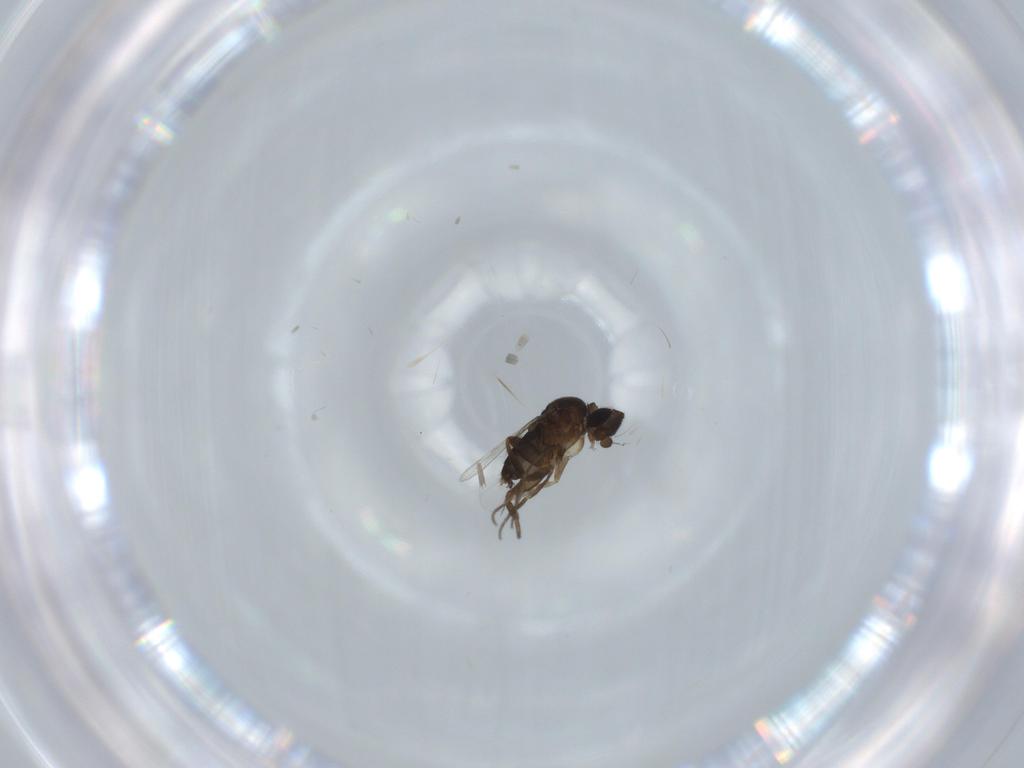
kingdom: Animalia
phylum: Arthropoda
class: Insecta
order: Diptera
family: Phoridae
